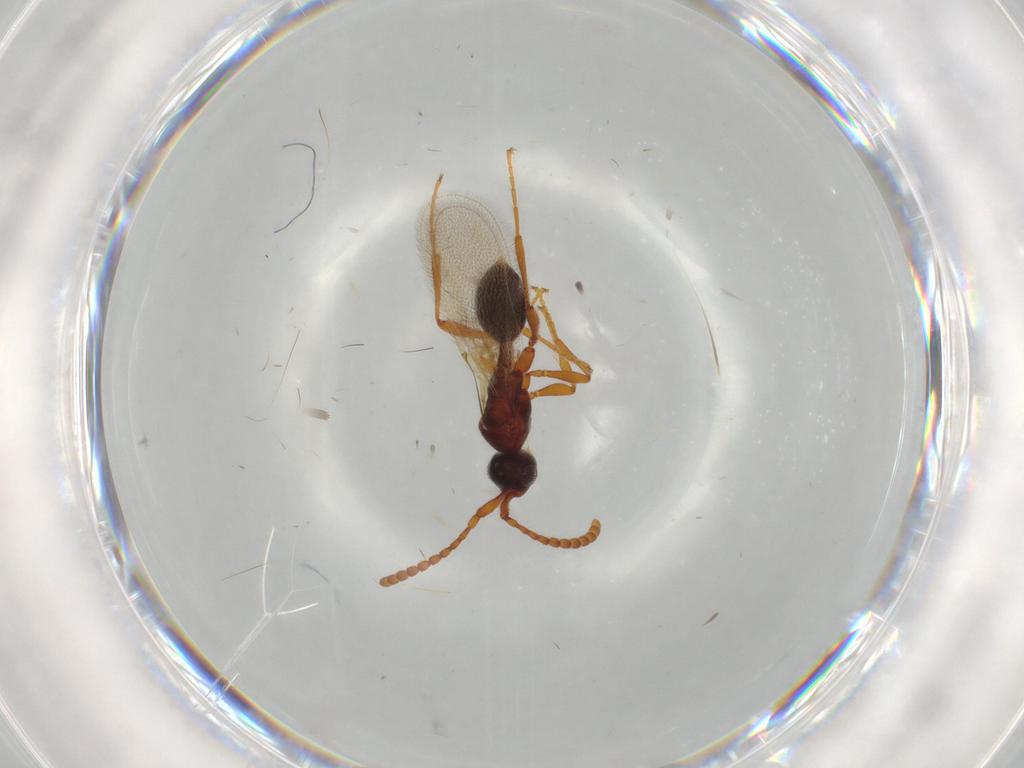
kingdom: Animalia
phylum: Arthropoda
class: Insecta
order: Hymenoptera
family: Diapriidae
